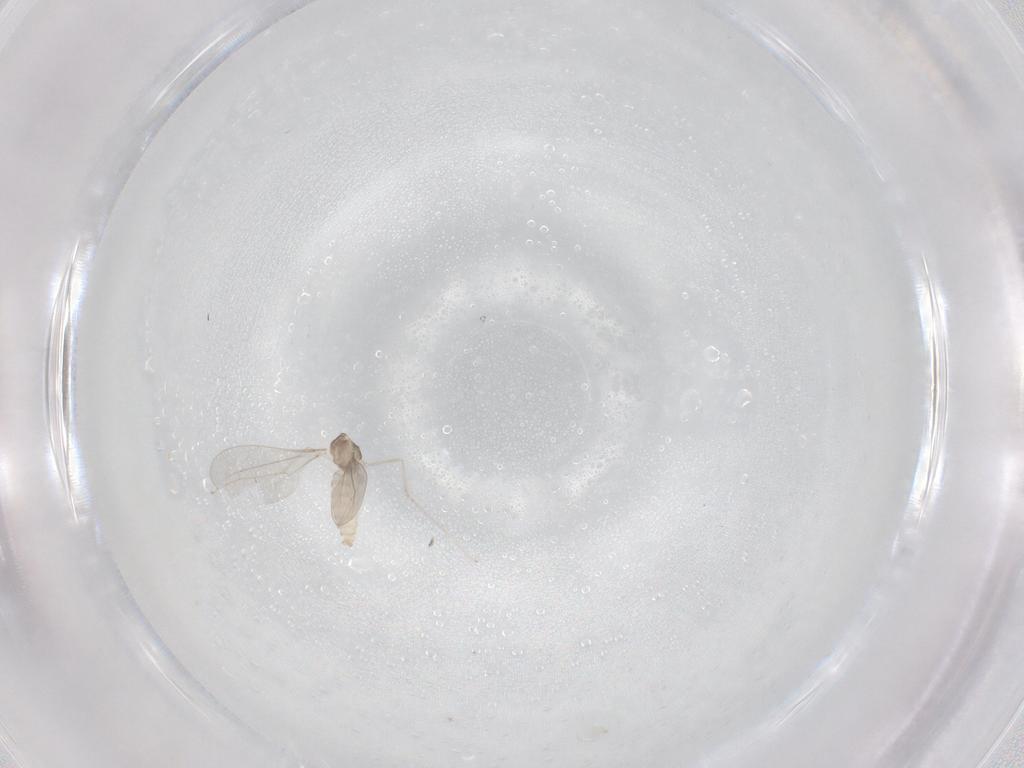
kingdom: Animalia
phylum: Arthropoda
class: Insecta
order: Diptera
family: Cecidomyiidae
